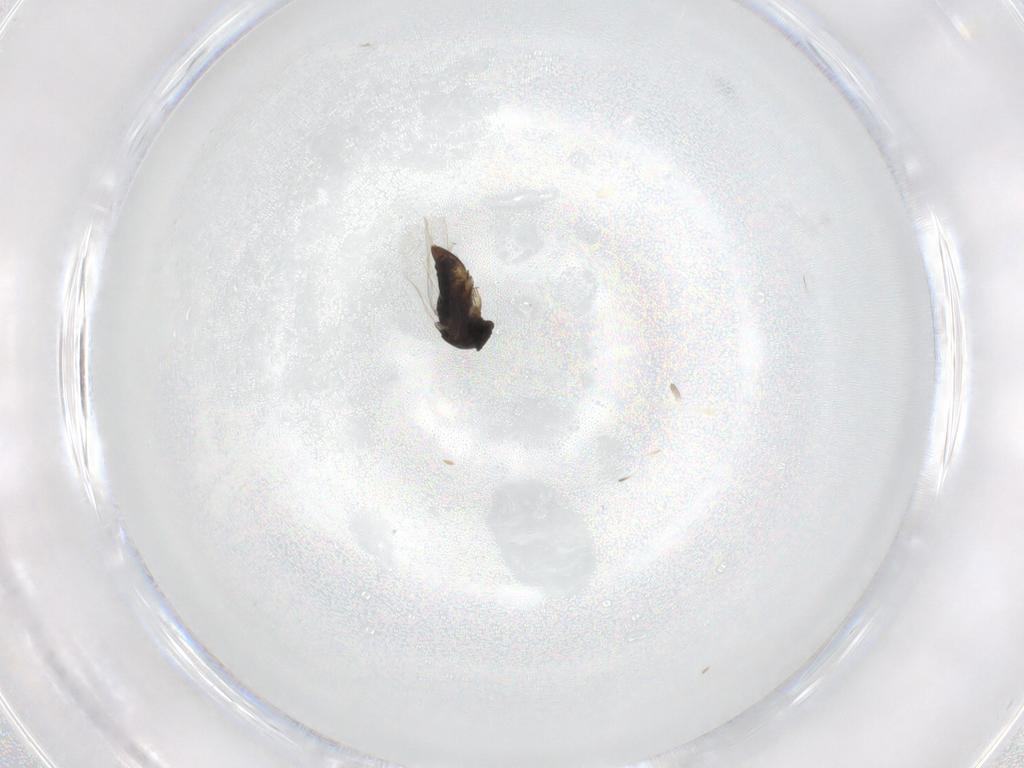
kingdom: Animalia
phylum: Arthropoda
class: Insecta
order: Diptera
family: Phoridae
